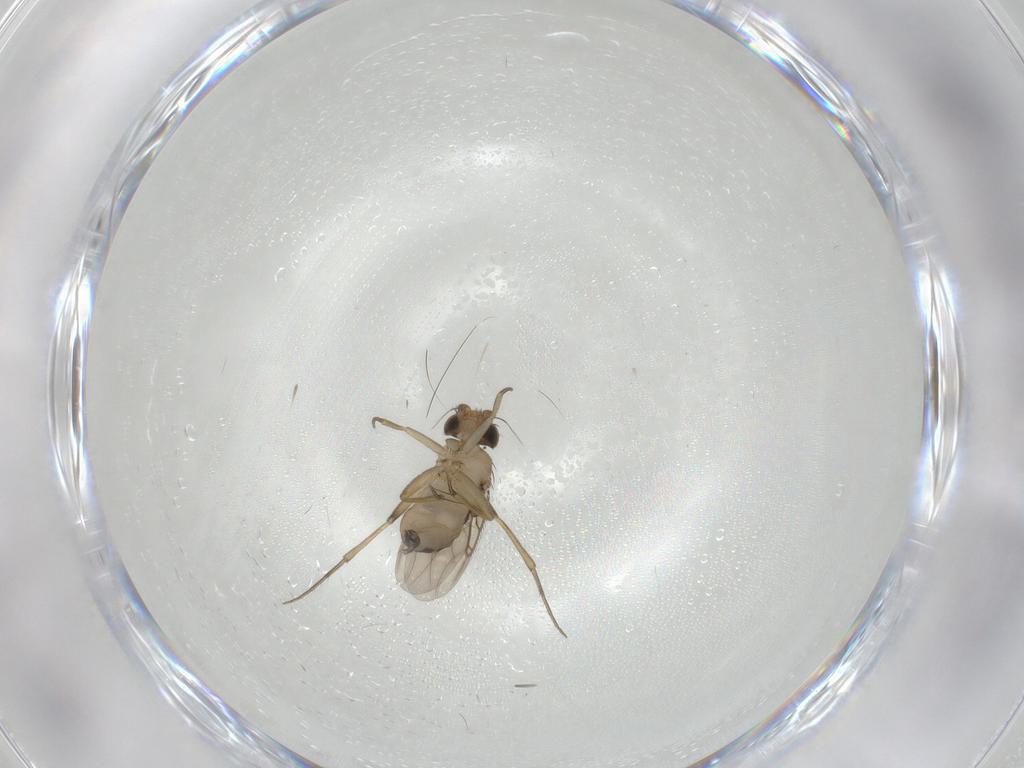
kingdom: Animalia
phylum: Arthropoda
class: Insecta
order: Diptera
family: Phoridae
